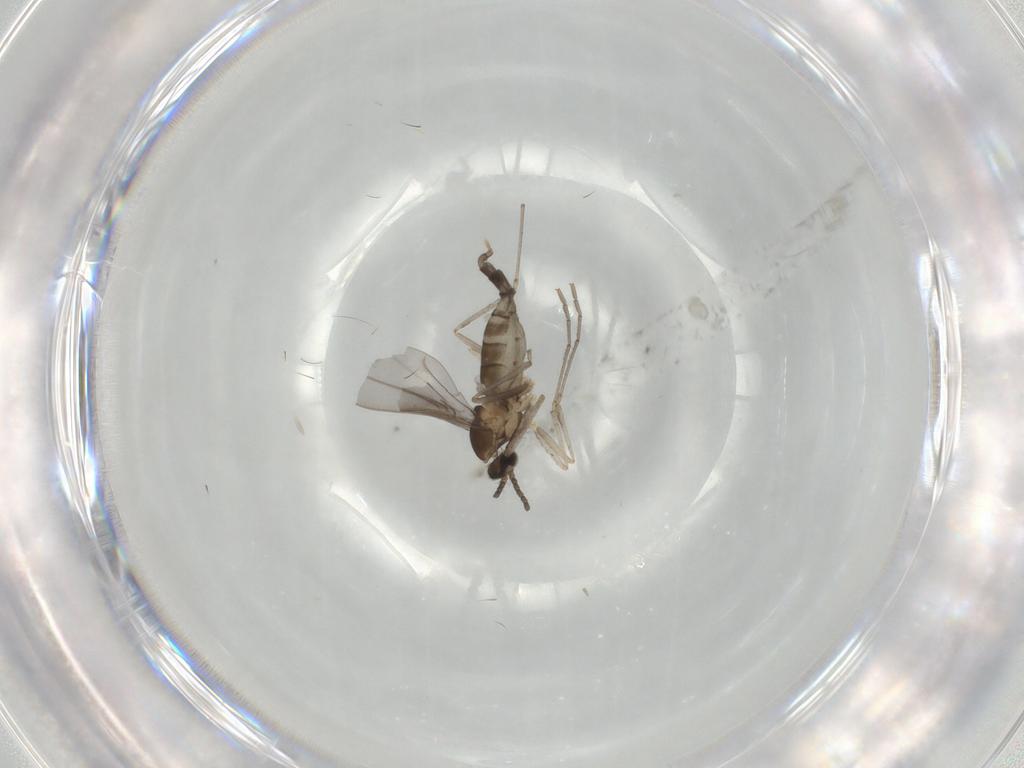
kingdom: Animalia
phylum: Arthropoda
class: Insecta
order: Diptera
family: Cecidomyiidae
